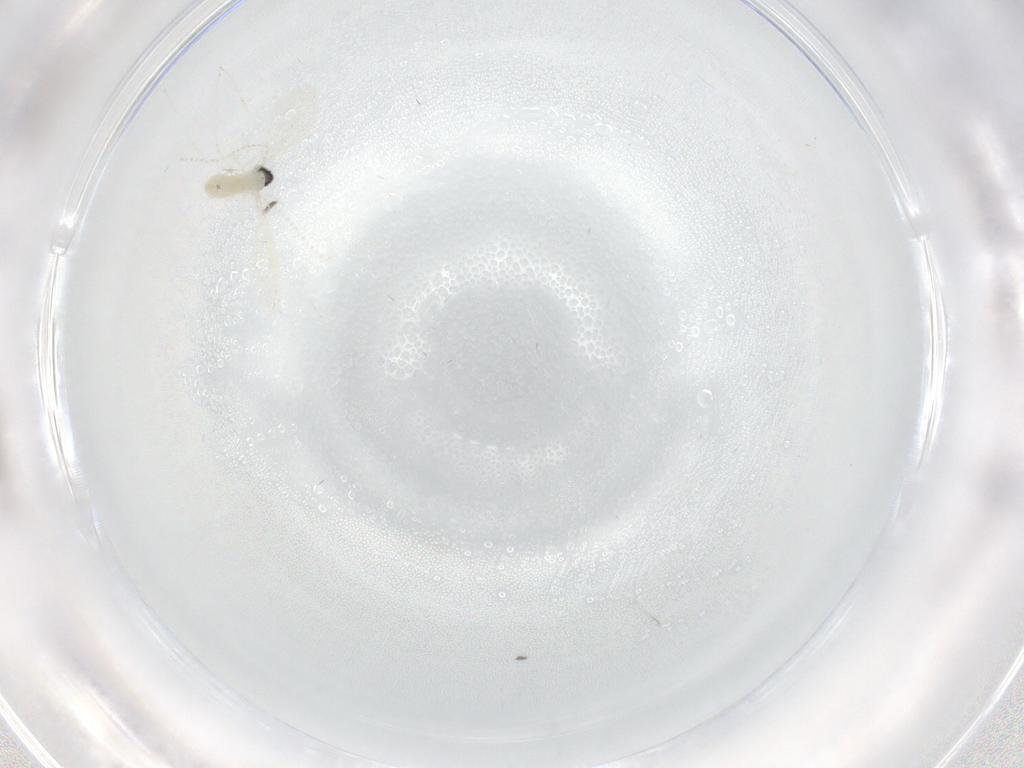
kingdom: Animalia
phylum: Arthropoda
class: Insecta
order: Diptera
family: Cecidomyiidae
